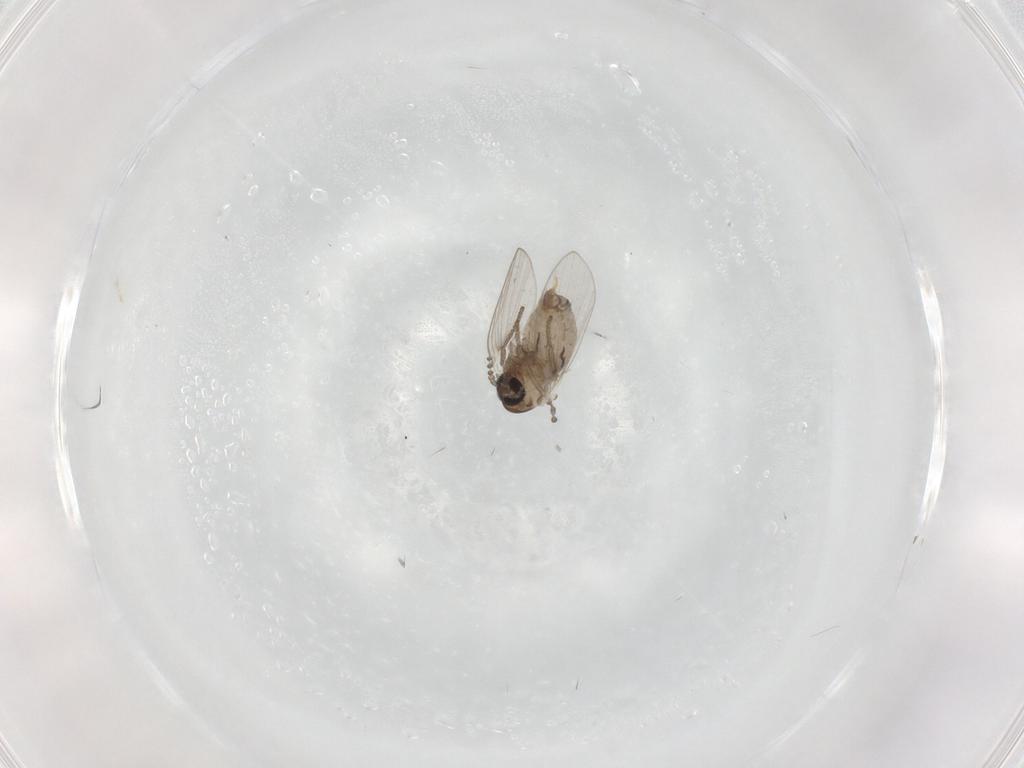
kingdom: Animalia
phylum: Arthropoda
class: Insecta
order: Diptera
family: Psychodidae
